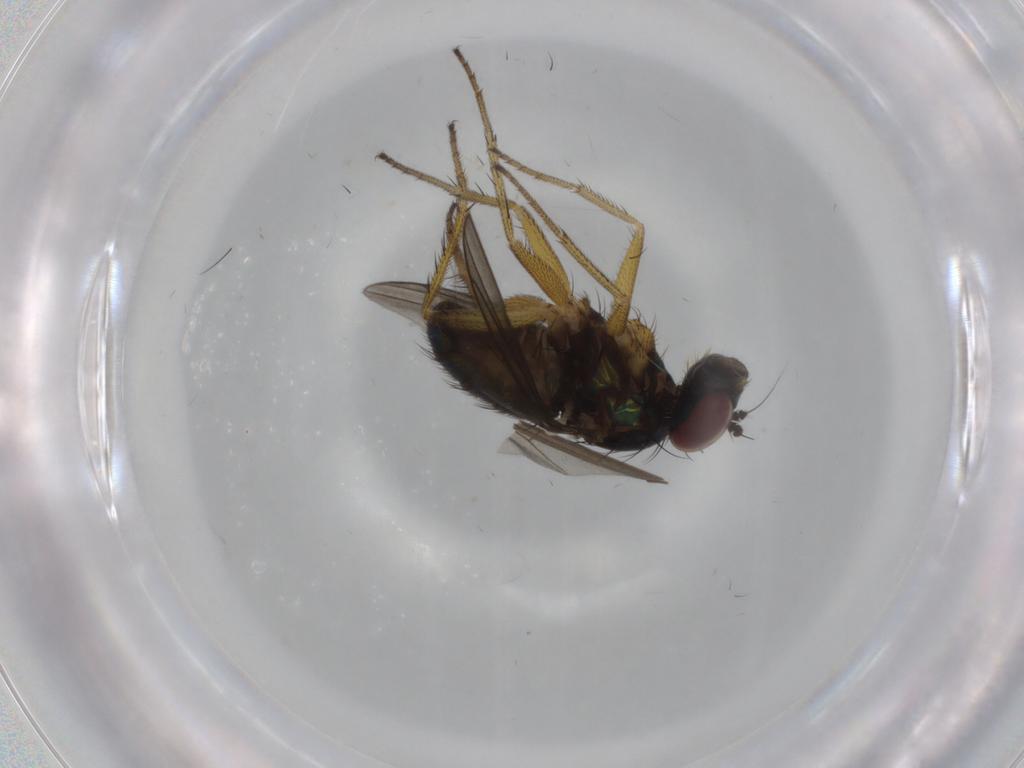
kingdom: Animalia
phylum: Arthropoda
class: Insecta
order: Diptera
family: Dolichopodidae
